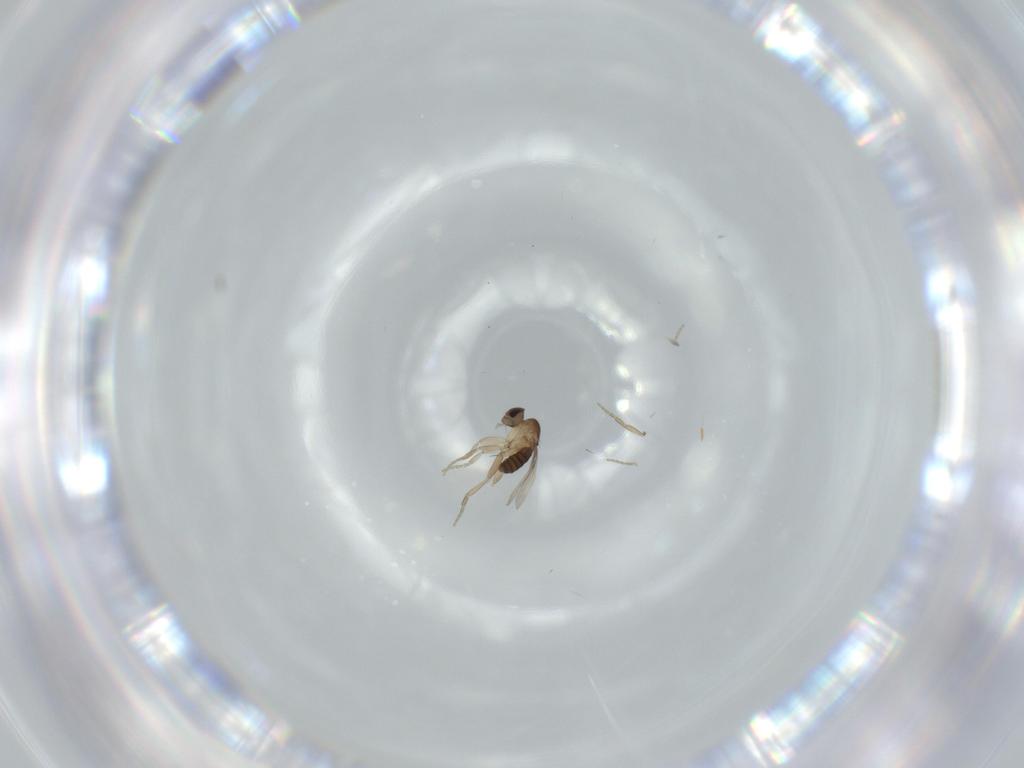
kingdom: Animalia
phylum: Arthropoda
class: Insecta
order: Diptera
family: Phoridae
